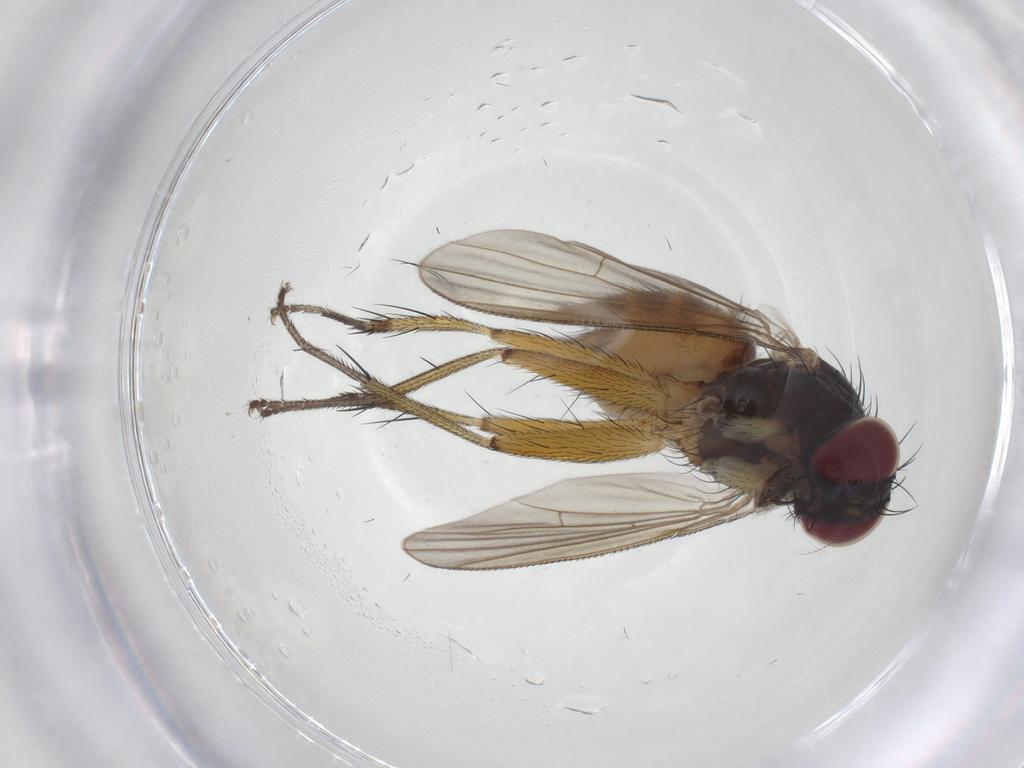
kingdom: Animalia
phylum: Arthropoda
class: Insecta
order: Diptera
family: Muscidae
